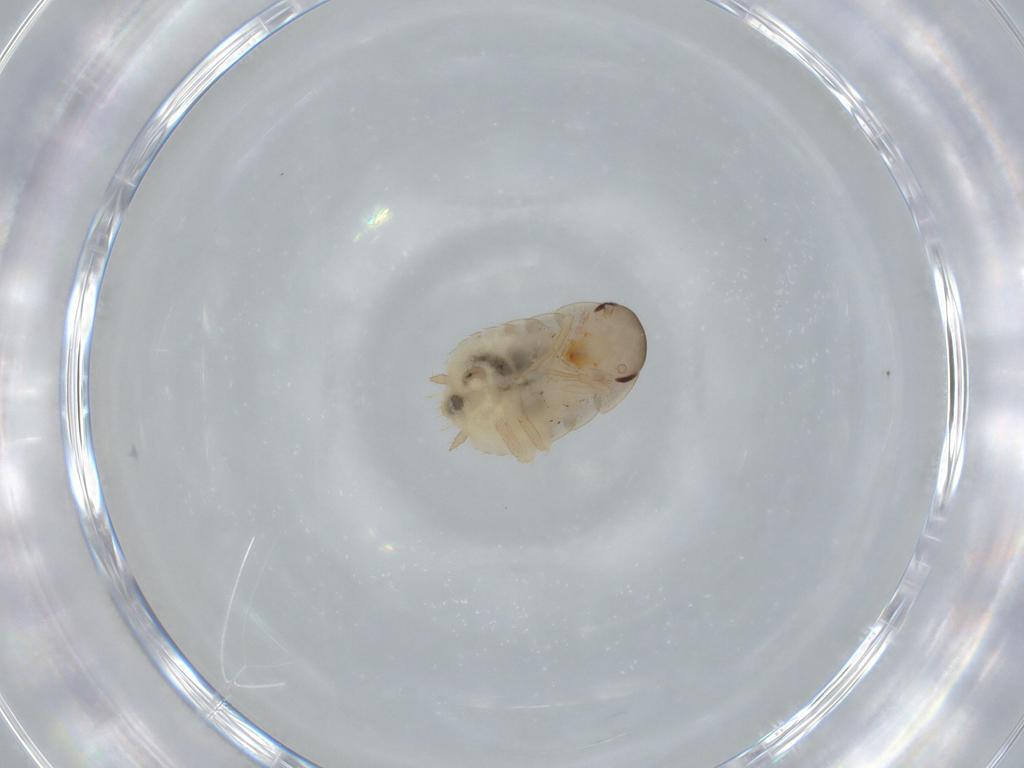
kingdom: Animalia
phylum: Arthropoda
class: Insecta
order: Blattodea
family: Ectobiidae
